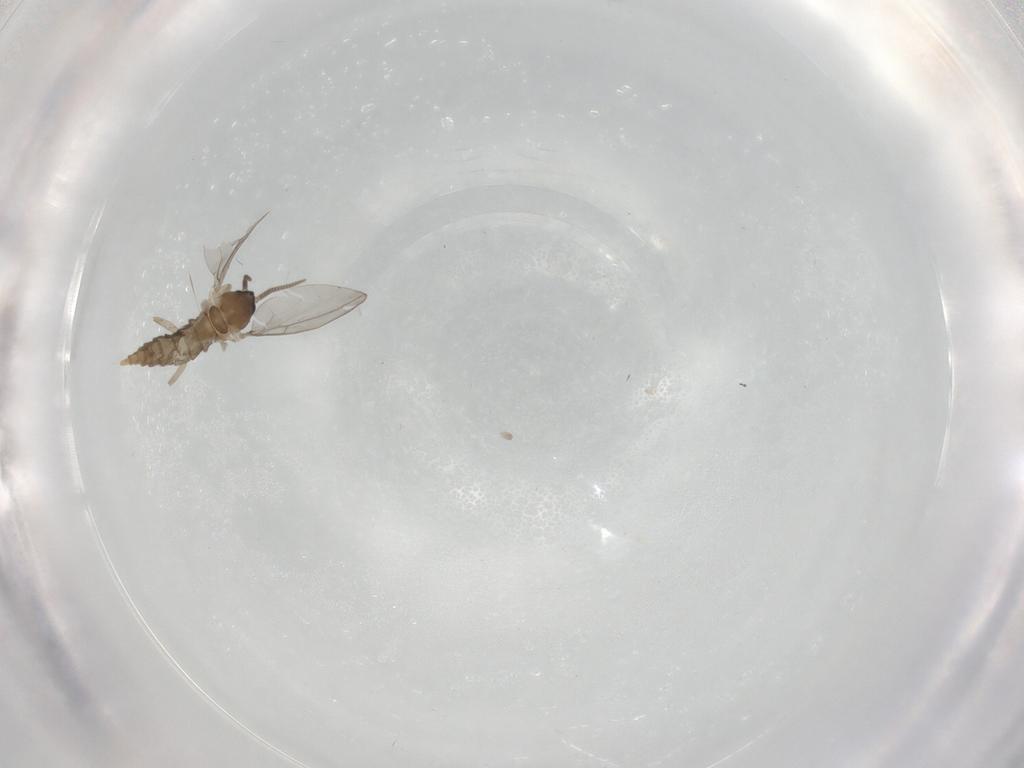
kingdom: Animalia
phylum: Arthropoda
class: Insecta
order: Diptera
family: Cecidomyiidae
